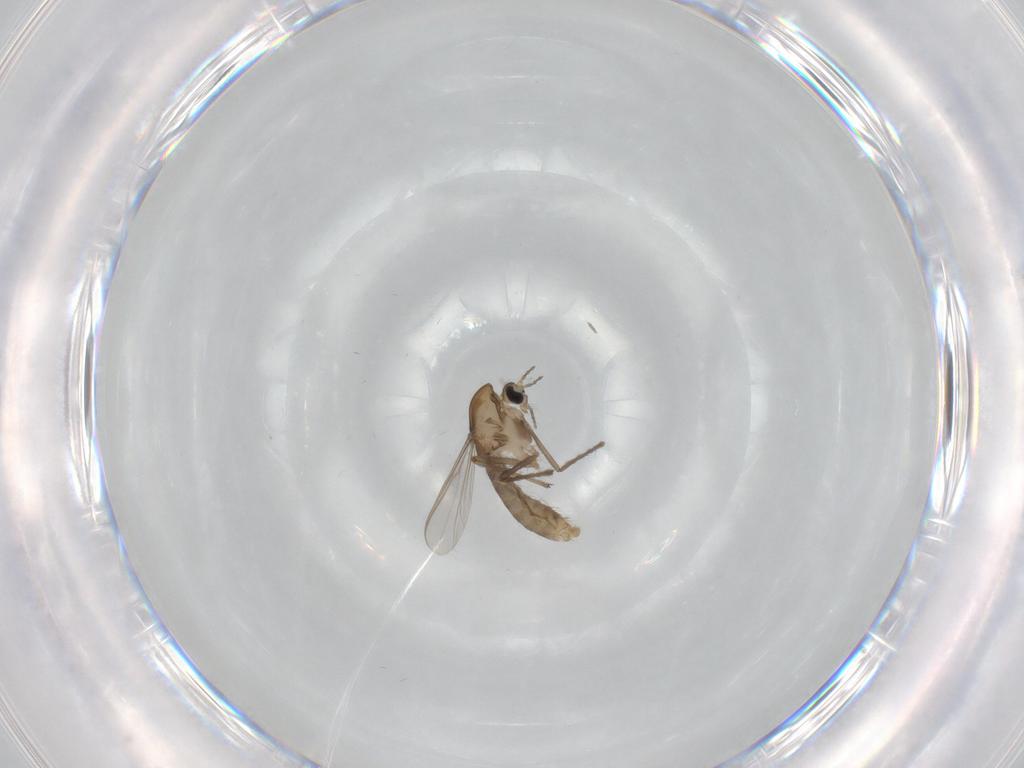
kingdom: Animalia
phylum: Arthropoda
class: Insecta
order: Diptera
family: Chironomidae
